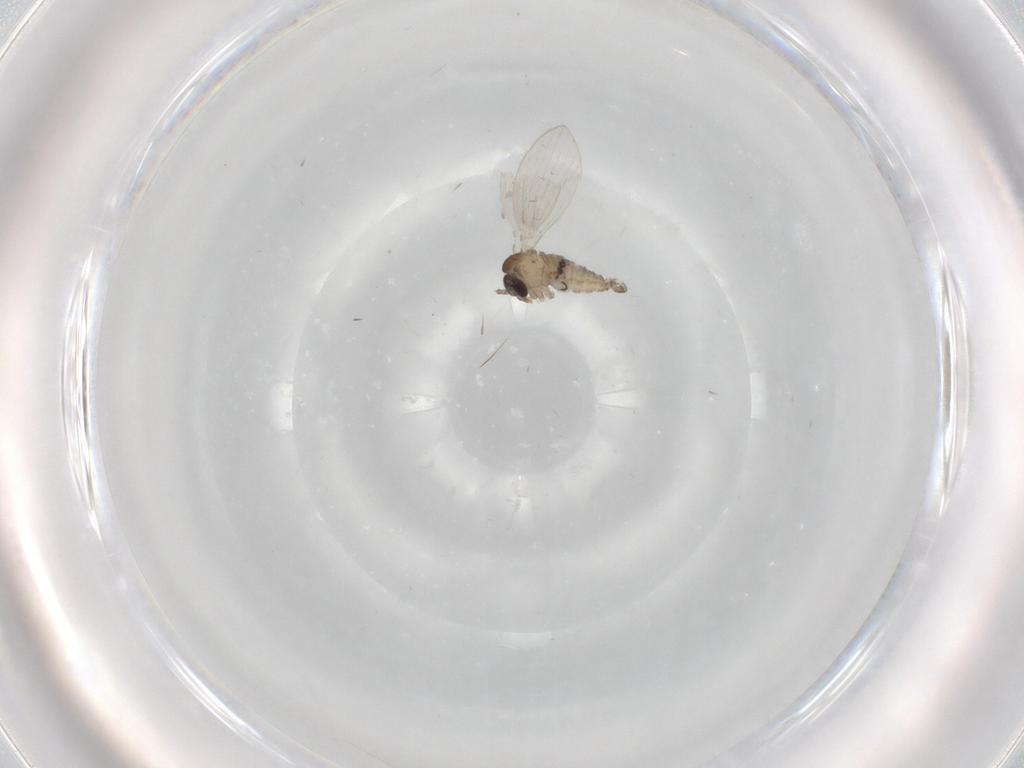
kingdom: Animalia
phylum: Arthropoda
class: Insecta
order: Diptera
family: Psychodidae
